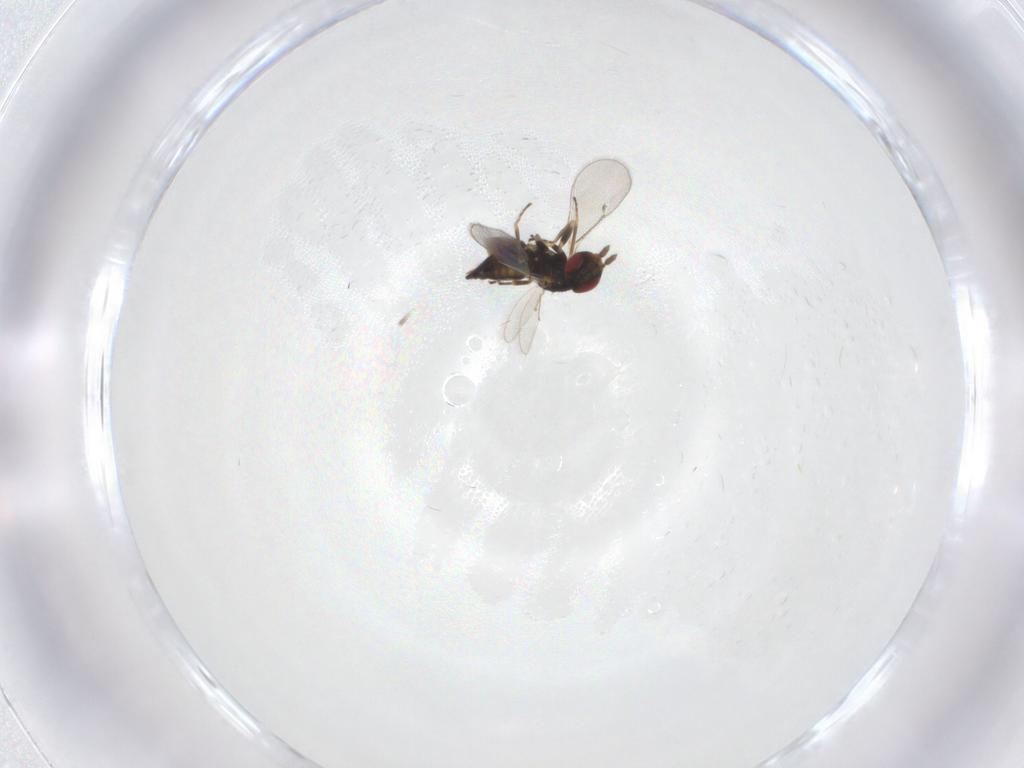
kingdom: Animalia
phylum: Arthropoda
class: Insecta
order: Hymenoptera
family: Eulophidae
